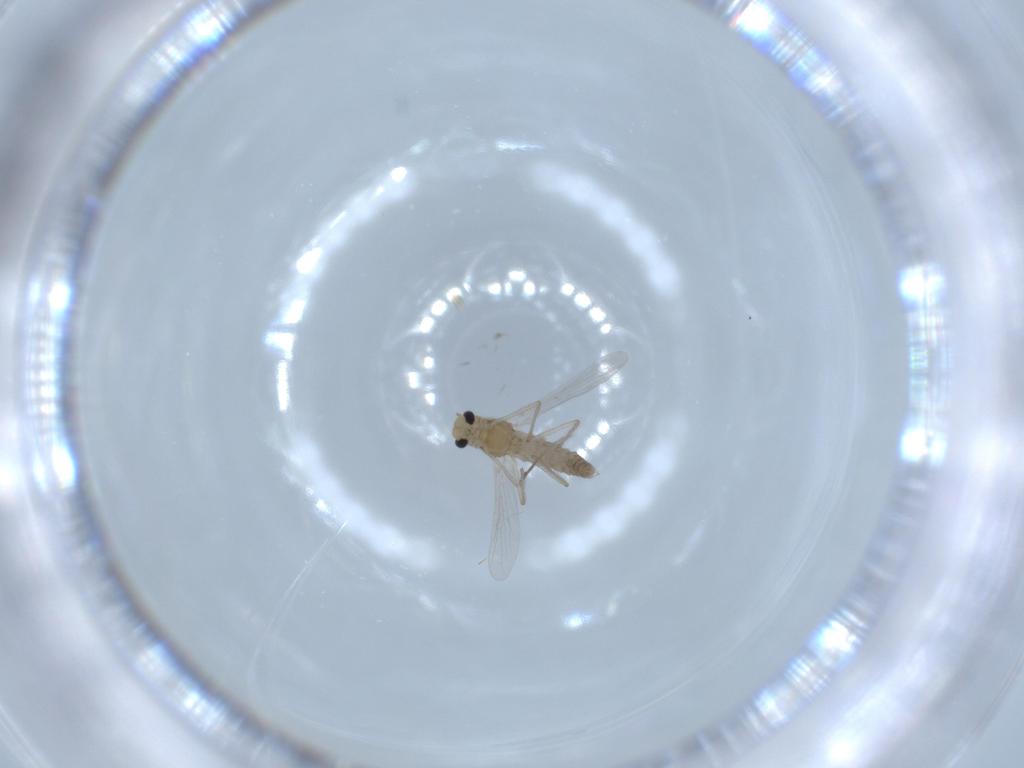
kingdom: Animalia
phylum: Arthropoda
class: Insecta
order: Diptera
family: Chironomidae
